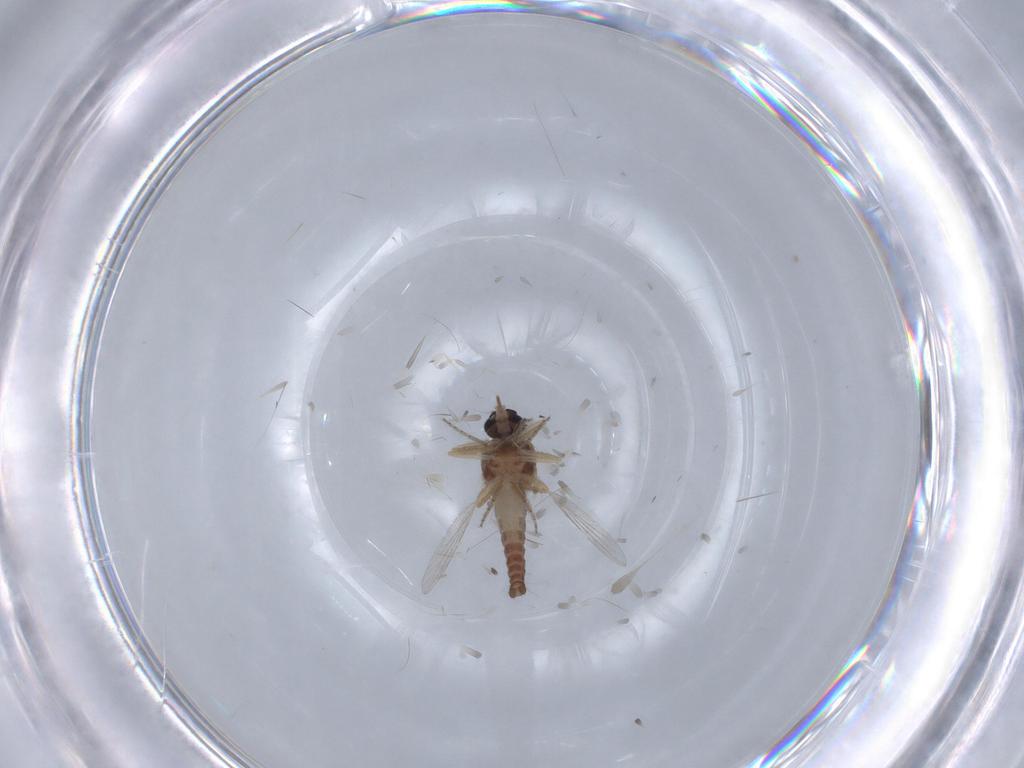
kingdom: Animalia
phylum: Arthropoda
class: Insecta
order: Diptera
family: Ceratopogonidae
